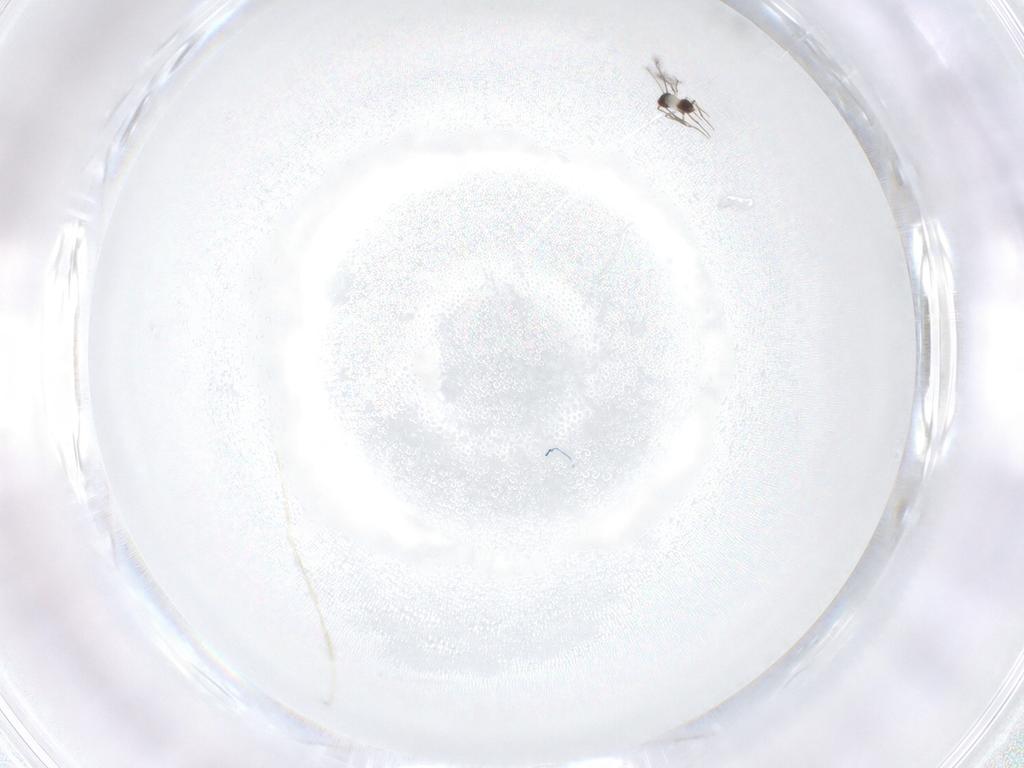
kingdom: Animalia
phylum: Arthropoda
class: Insecta
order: Hymenoptera
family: Mymaridae
